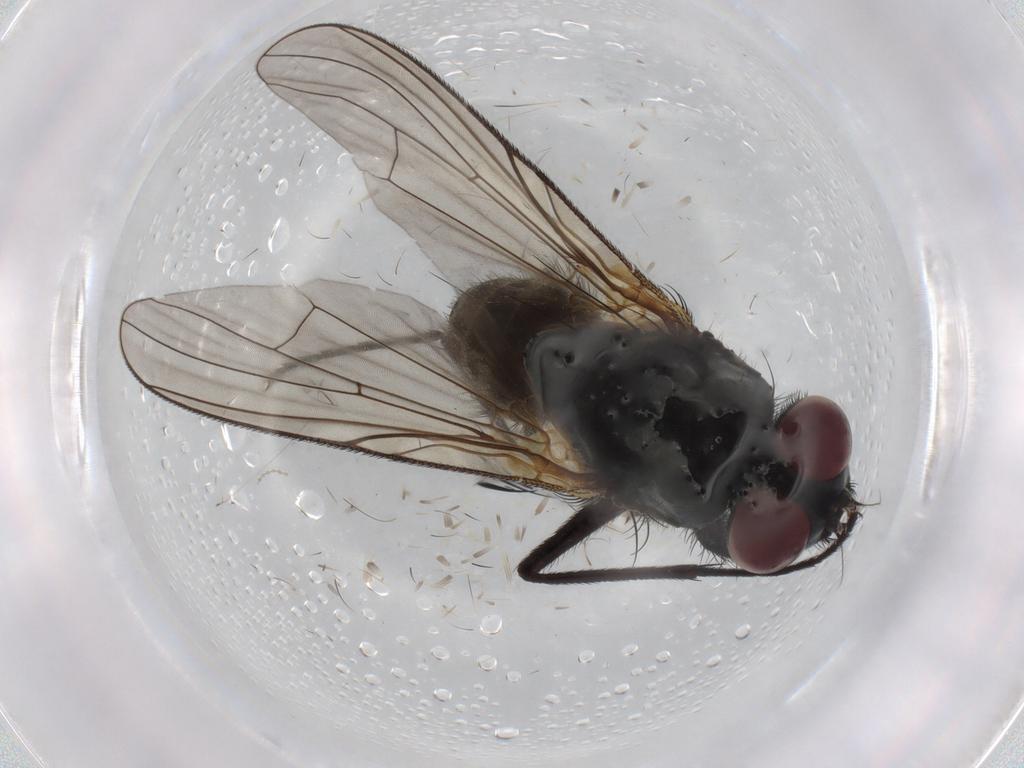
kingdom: Animalia
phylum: Arthropoda
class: Insecta
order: Diptera
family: Muscidae
